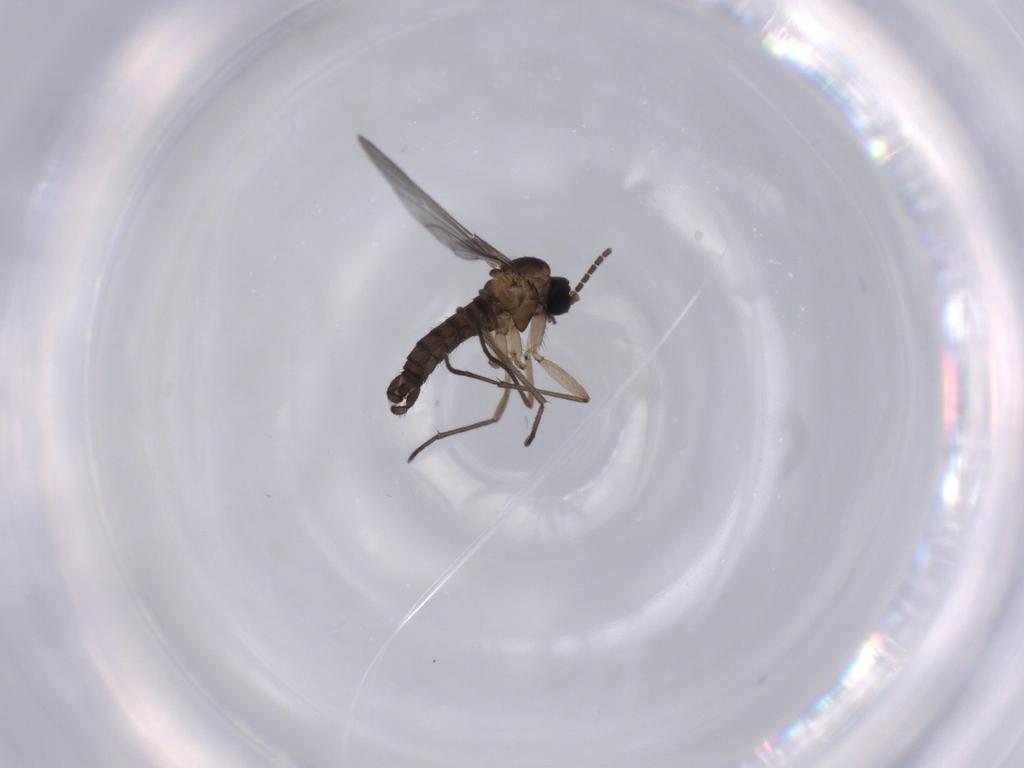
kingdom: Animalia
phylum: Arthropoda
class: Insecta
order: Diptera
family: Sciaridae
